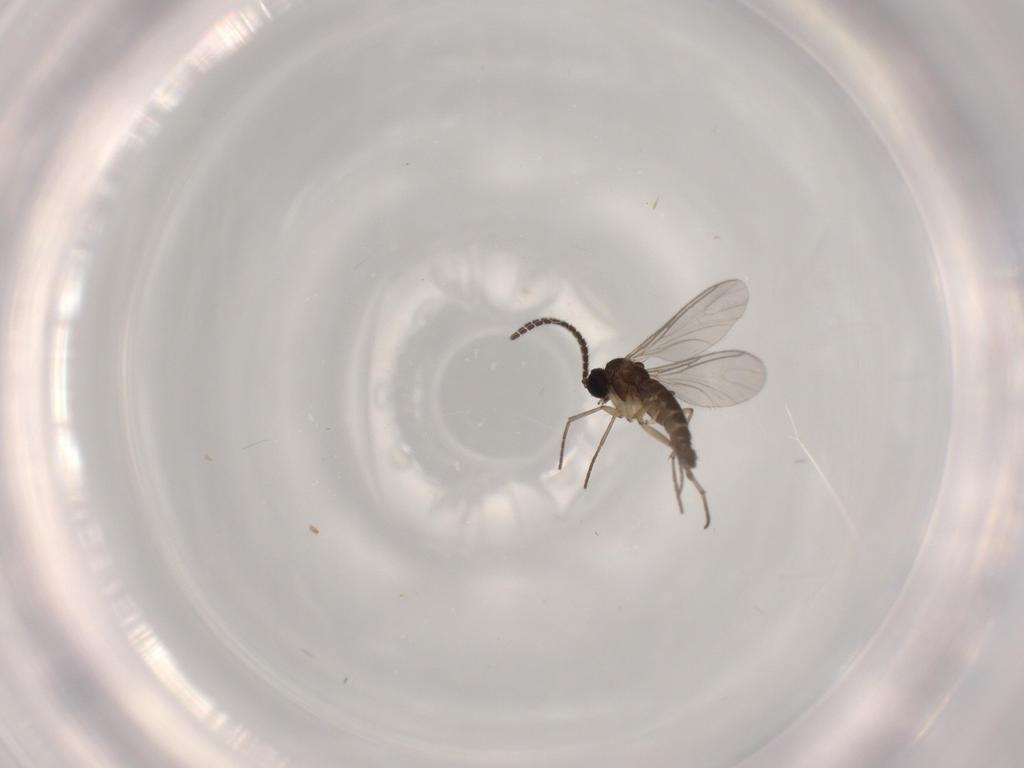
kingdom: Animalia
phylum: Arthropoda
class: Insecta
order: Diptera
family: Sciaridae
